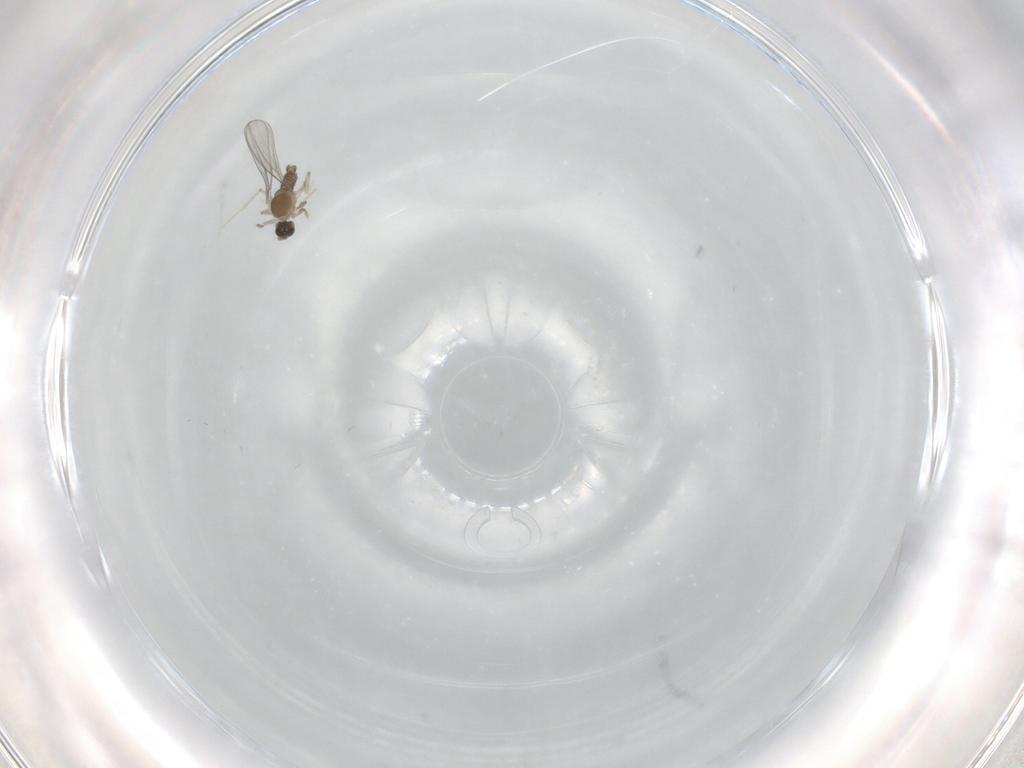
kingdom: Animalia
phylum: Arthropoda
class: Insecta
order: Diptera
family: Cecidomyiidae
